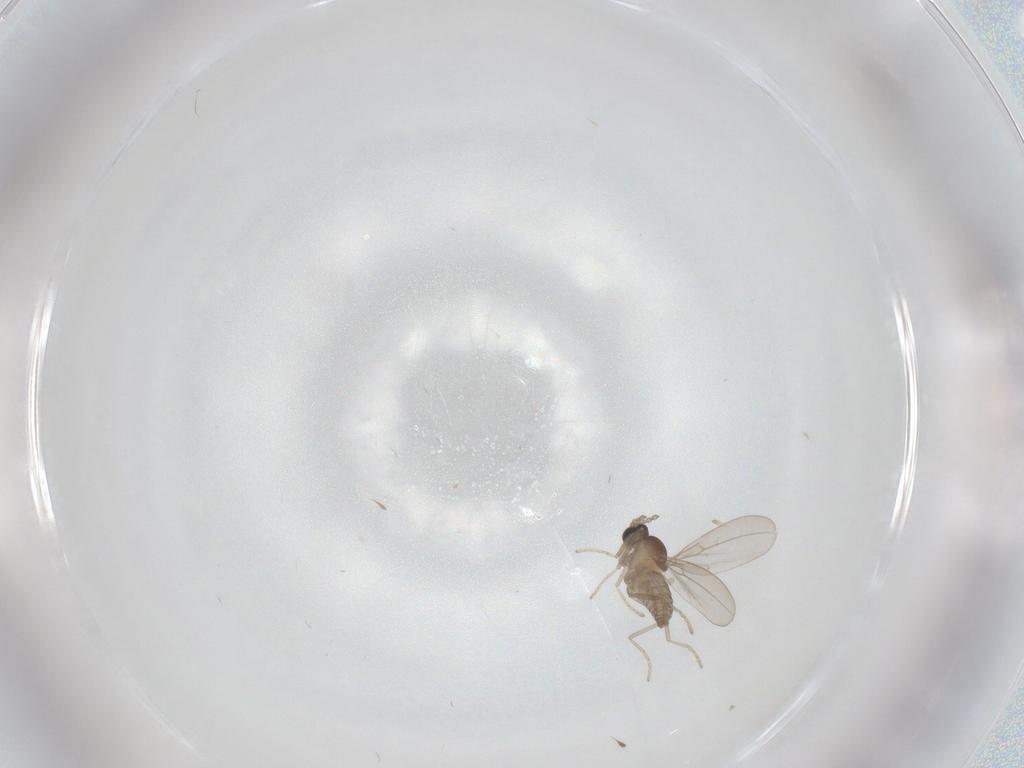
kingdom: Animalia
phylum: Arthropoda
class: Insecta
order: Diptera
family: Cecidomyiidae
